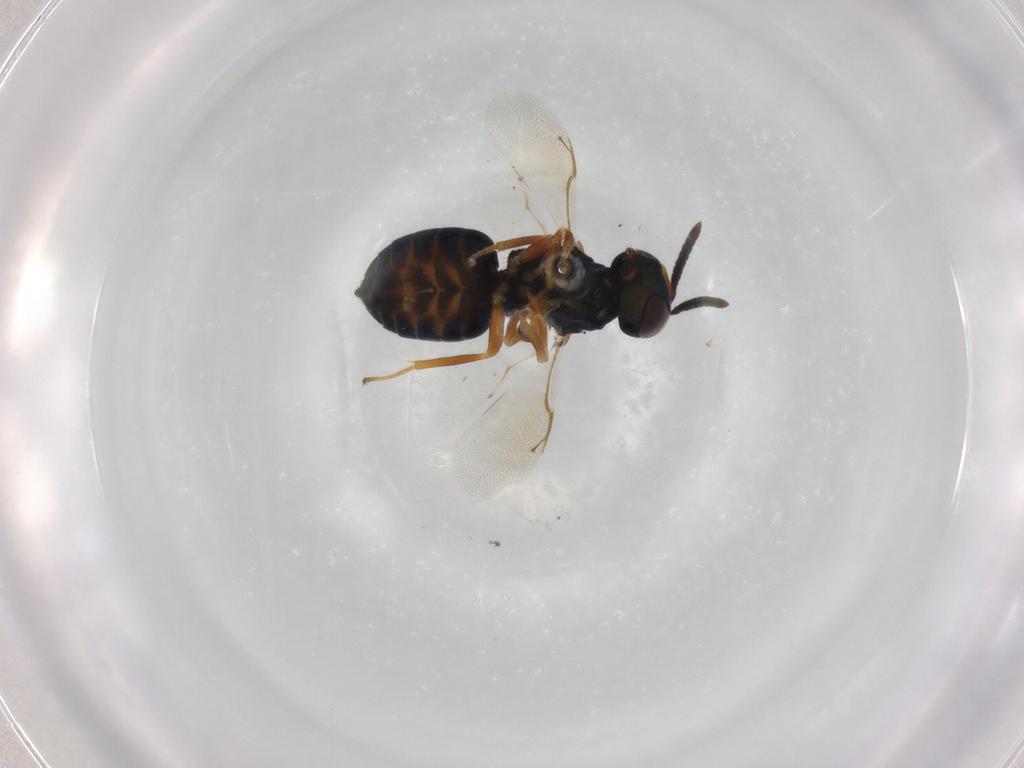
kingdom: Animalia
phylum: Arthropoda
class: Insecta
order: Hymenoptera
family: Pteromalidae
